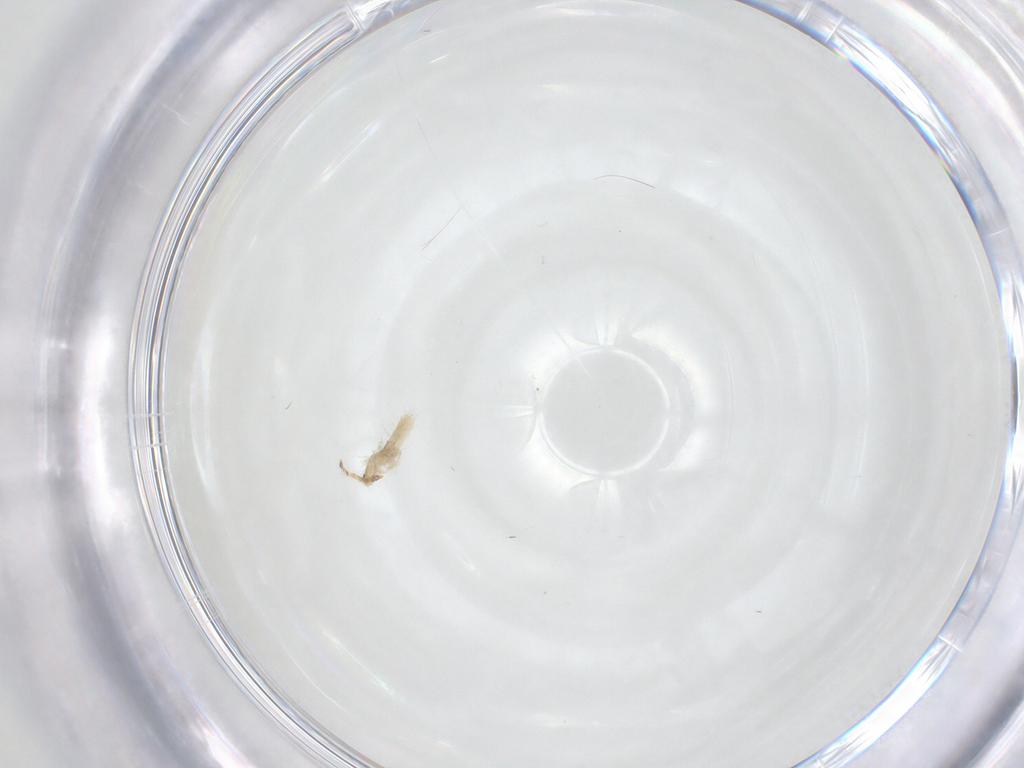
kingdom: Animalia
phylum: Arthropoda
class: Collembola
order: Entomobryomorpha
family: Entomobryidae
